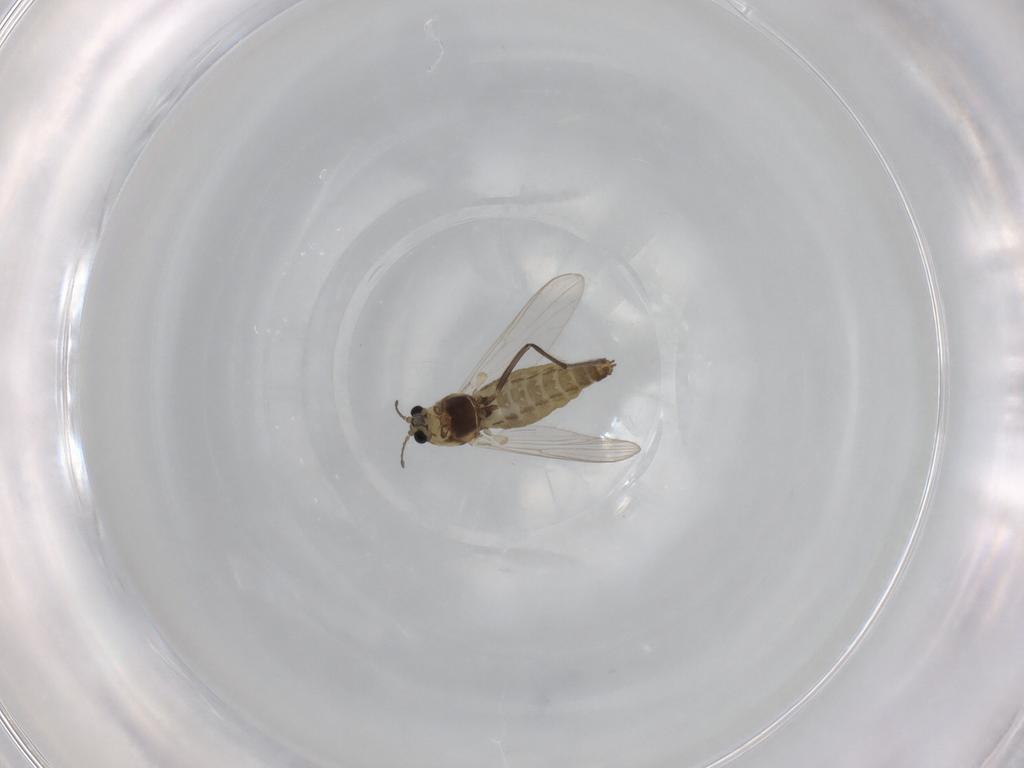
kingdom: Animalia
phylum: Arthropoda
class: Insecta
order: Diptera
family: Chironomidae
